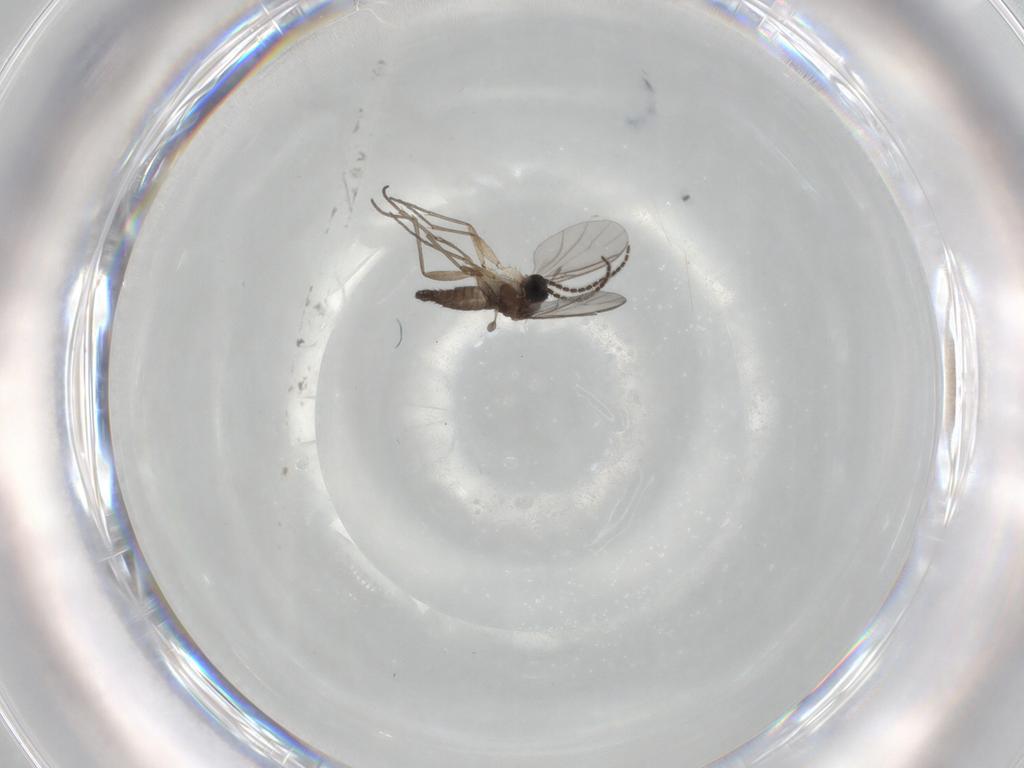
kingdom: Animalia
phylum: Arthropoda
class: Insecta
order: Diptera
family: Sciaridae
